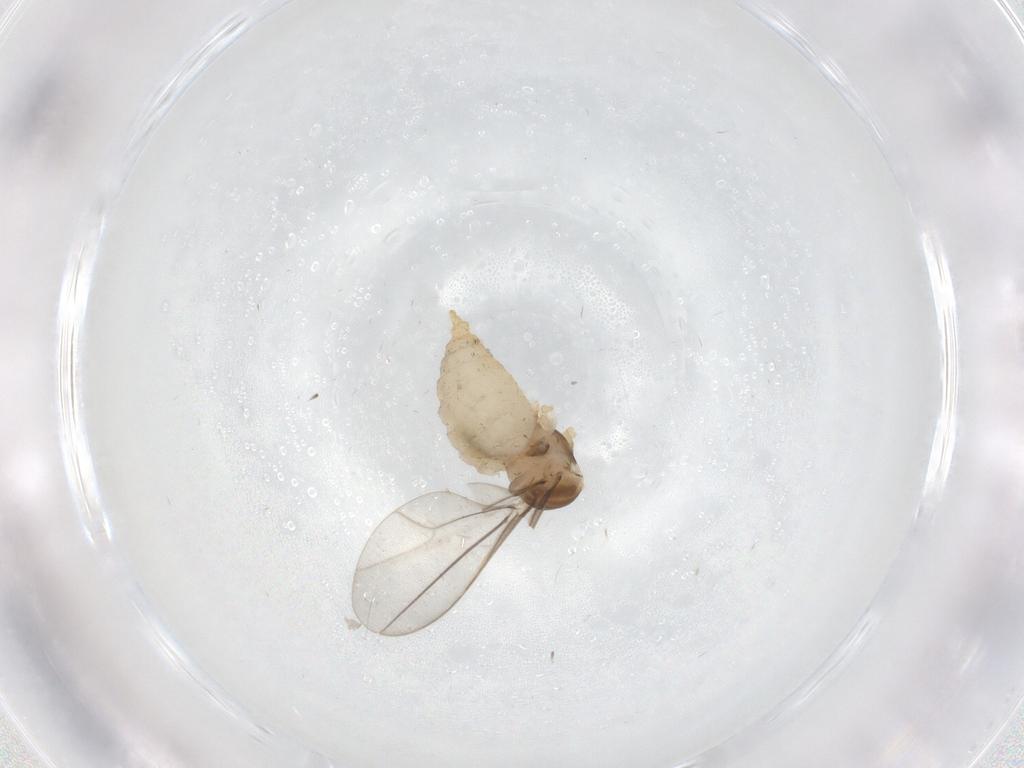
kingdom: Animalia
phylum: Arthropoda
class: Insecta
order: Diptera
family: Cecidomyiidae
